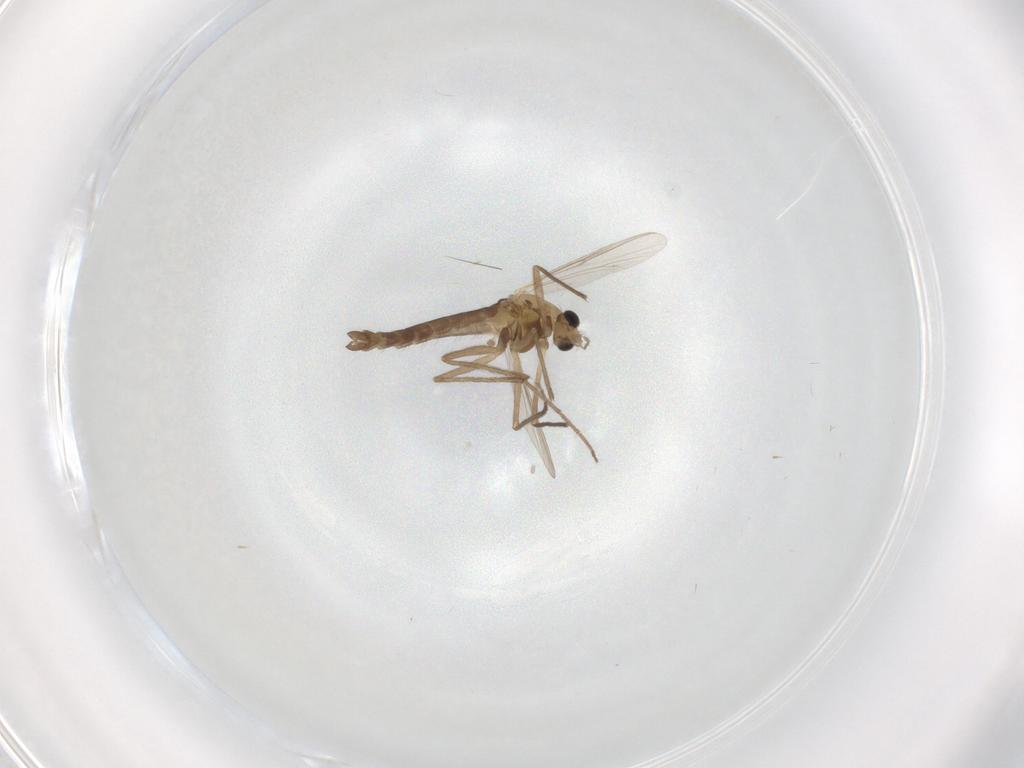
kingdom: Animalia
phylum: Arthropoda
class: Insecta
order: Diptera
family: Chironomidae
